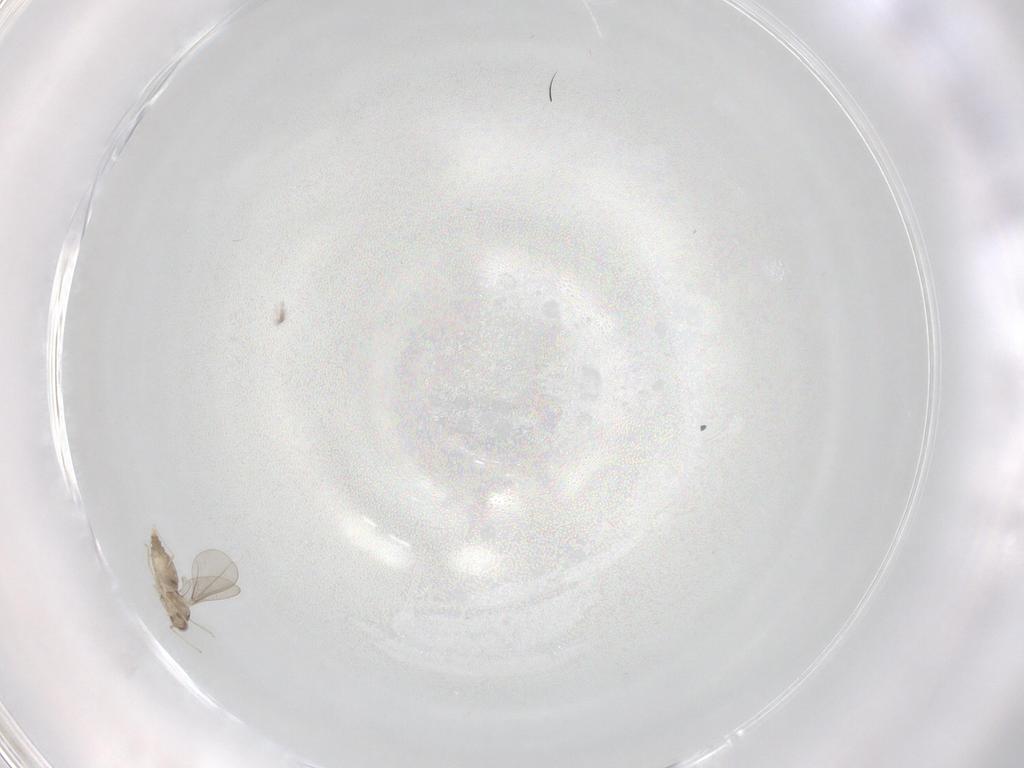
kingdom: Animalia
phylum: Arthropoda
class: Insecta
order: Diptera
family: Cecidomyiidae
